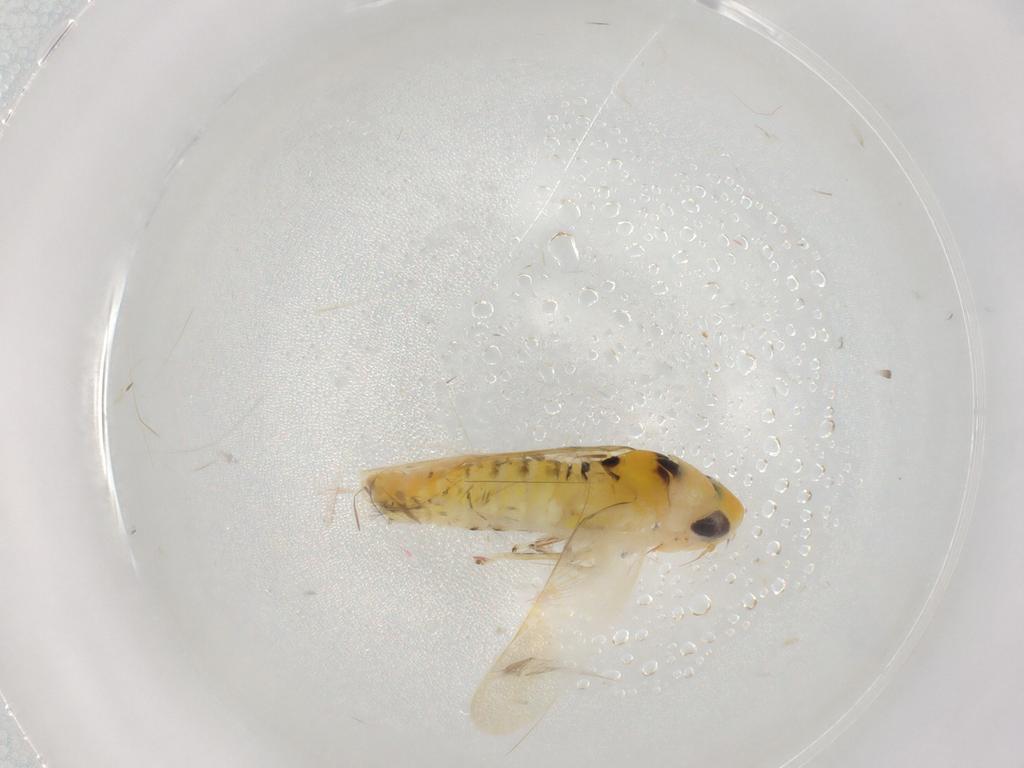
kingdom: Animalia
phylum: Arthropoda
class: Insecta
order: Hemiptera
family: Cicadellidae
